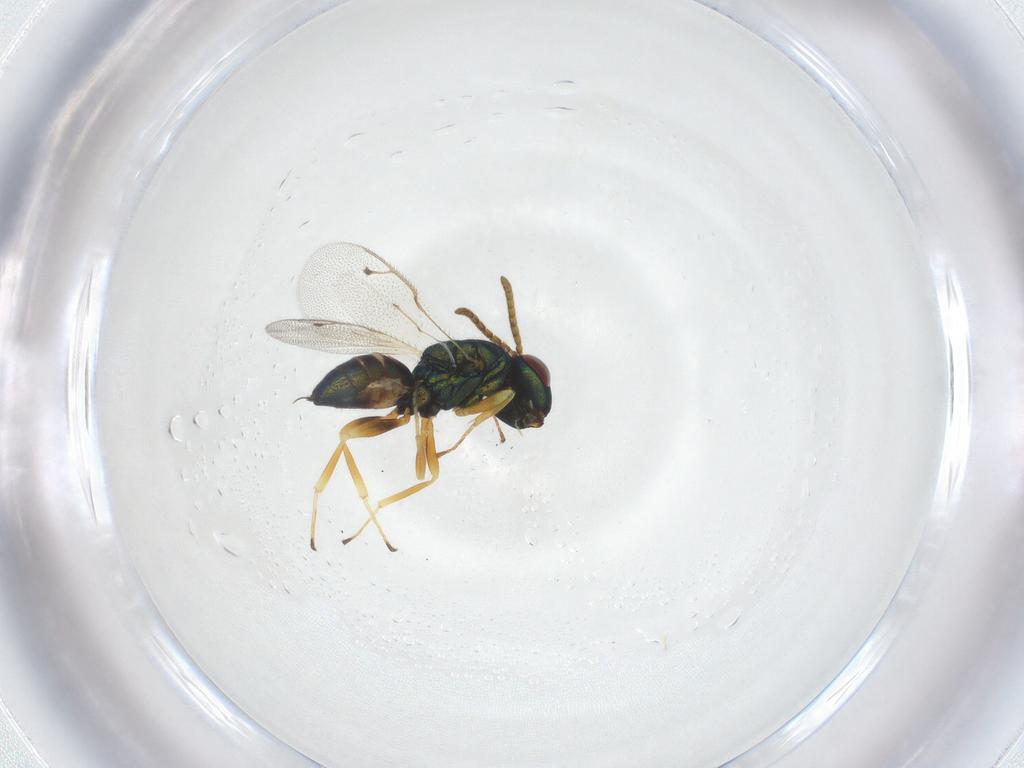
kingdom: Animalia
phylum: Arthropoda
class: Insecta
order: Hymenoptera
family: Pteromalidae
